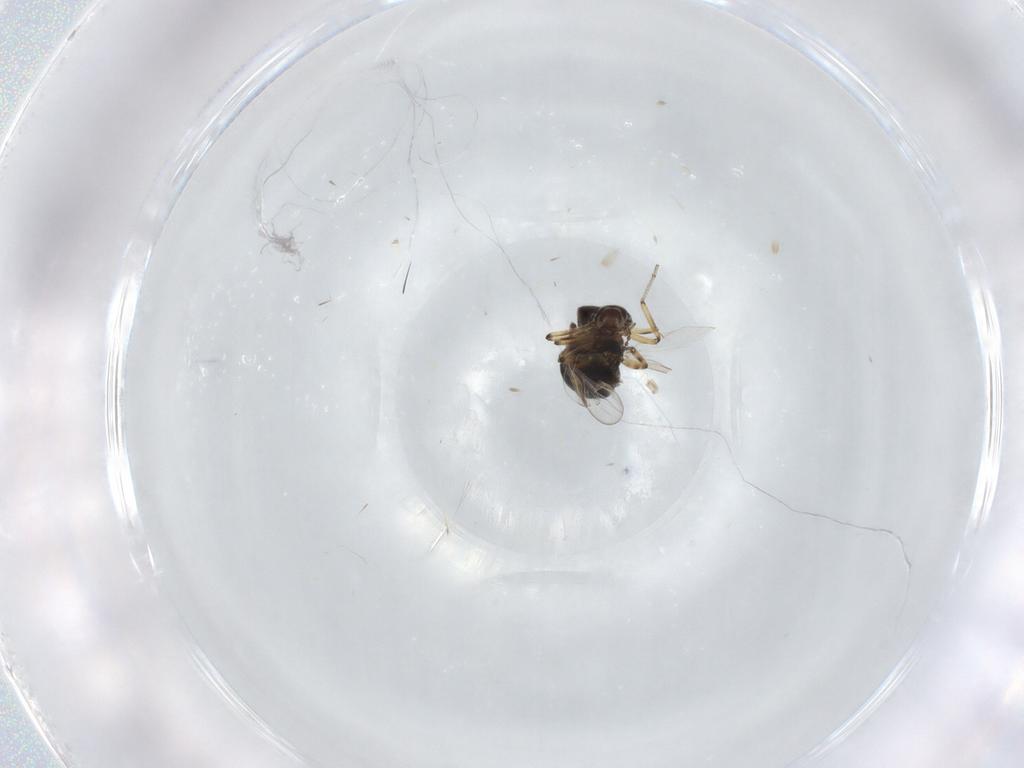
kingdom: Animalia
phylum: Arthropoda
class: Insecta
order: Diptera
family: Ceratopogonidae
